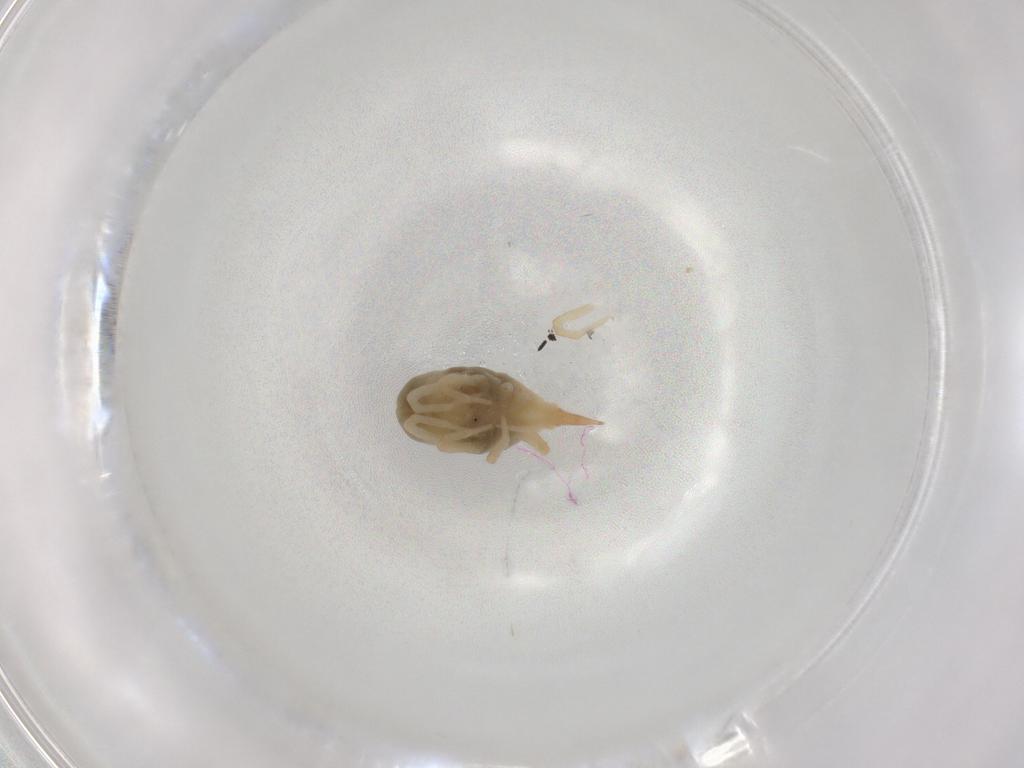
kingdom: Animalia
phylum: Arthropoda
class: Arachnida
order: Trombidiformes
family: Bdellidae
